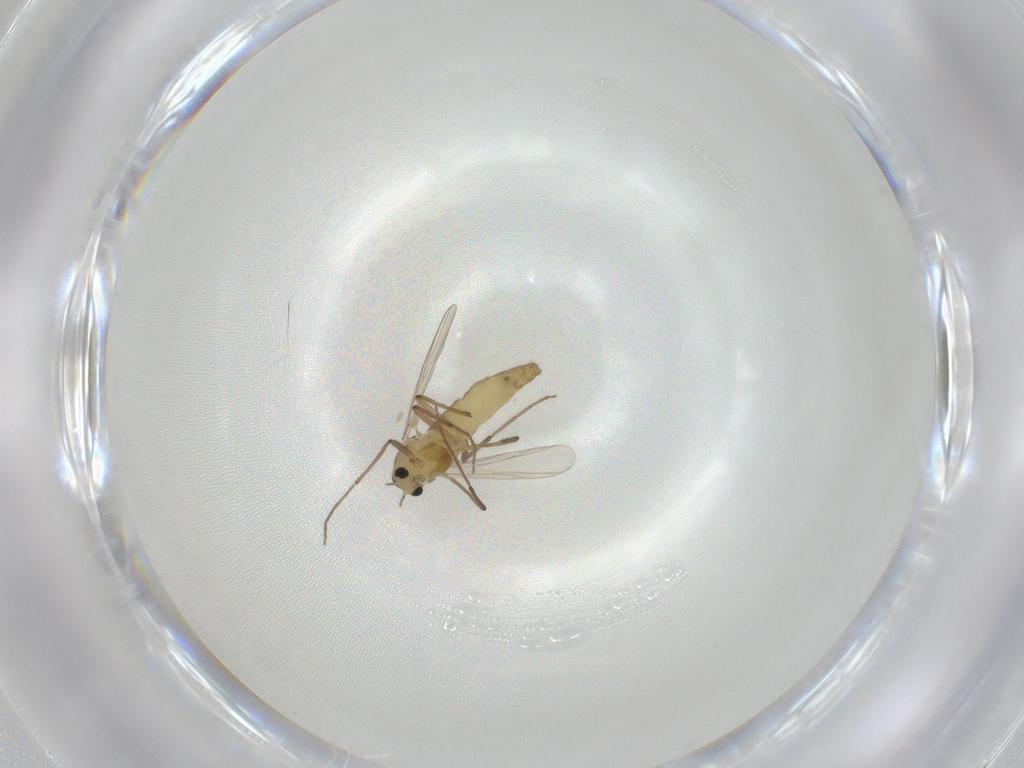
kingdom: Animalia
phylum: Arthropoda
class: Insecta
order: Diptera
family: Chironomidae
